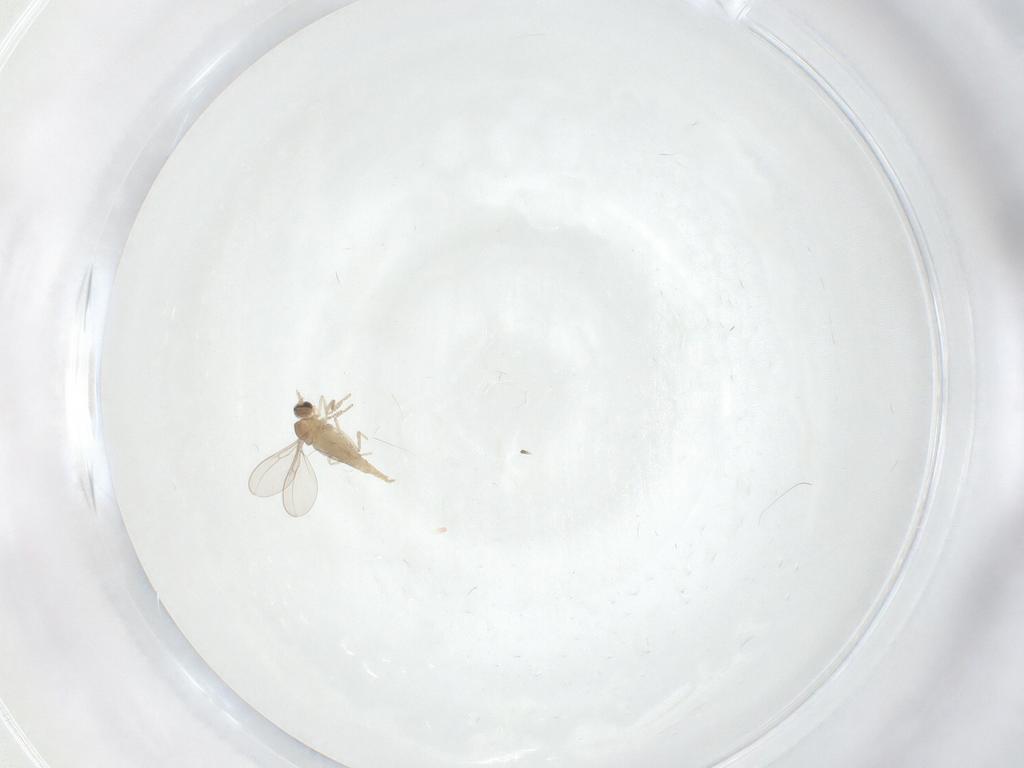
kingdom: Animalia
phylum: Arthropoda
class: Insecta
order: Diptera
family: Cecidomyiidae
